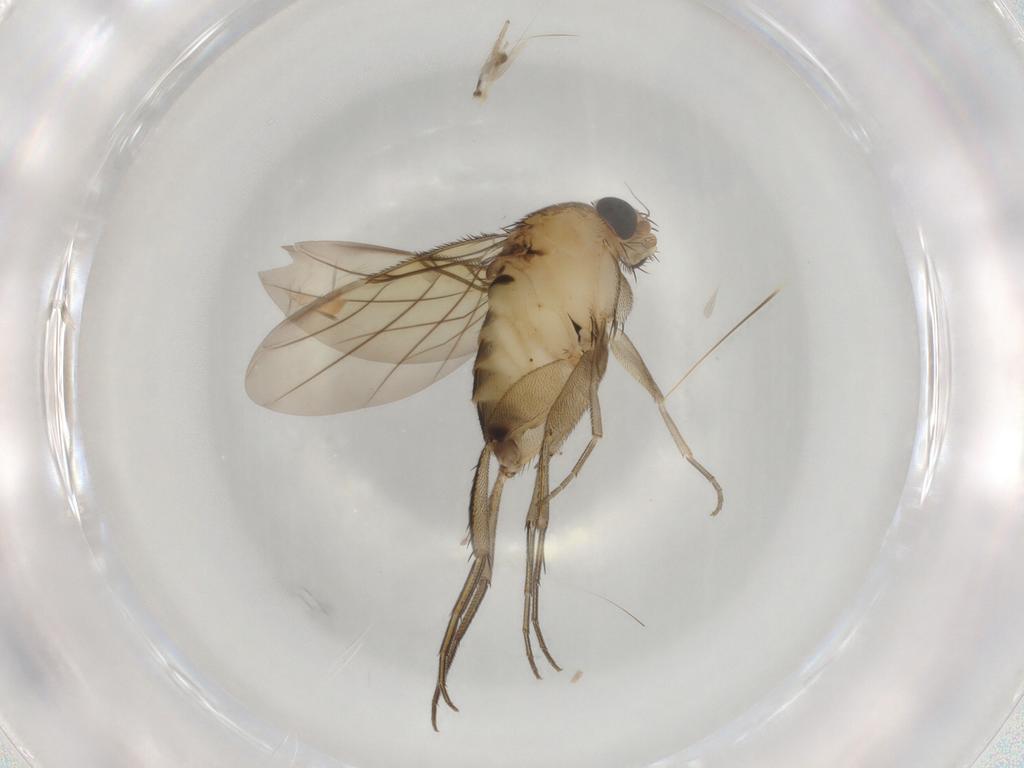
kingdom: Animalia
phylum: Arthropoda
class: Insecta
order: Diptera
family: Phoridae
